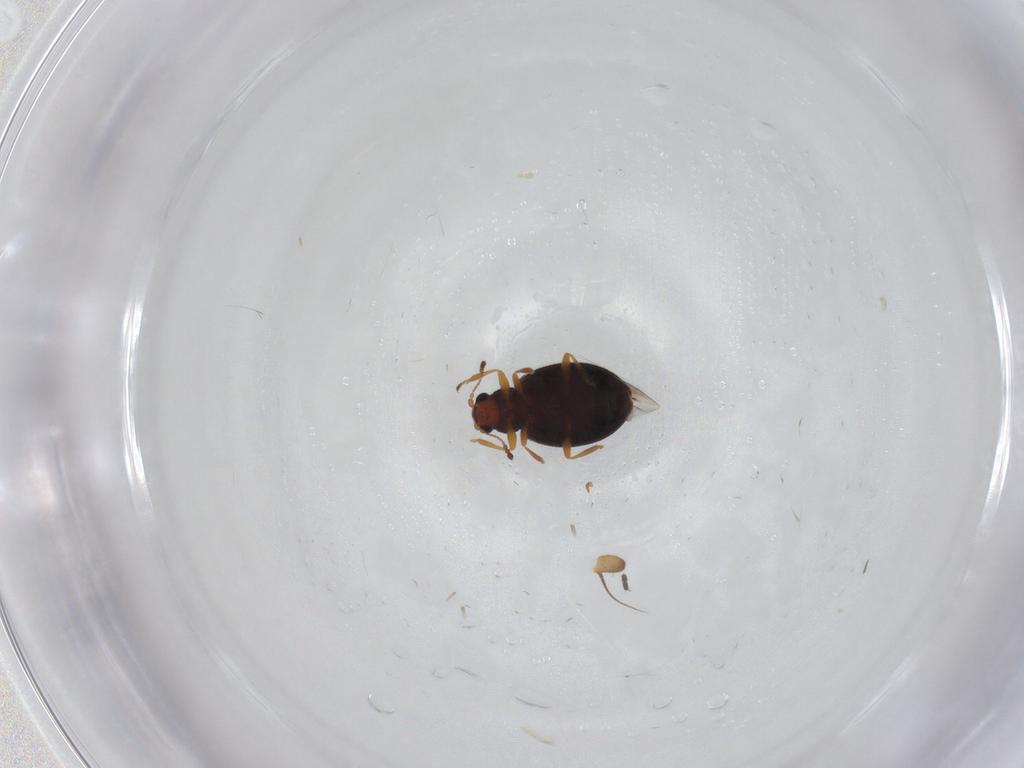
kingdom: Animalia
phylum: Arthropoda
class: Insecta
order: Coleoptera
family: Latridiidae
